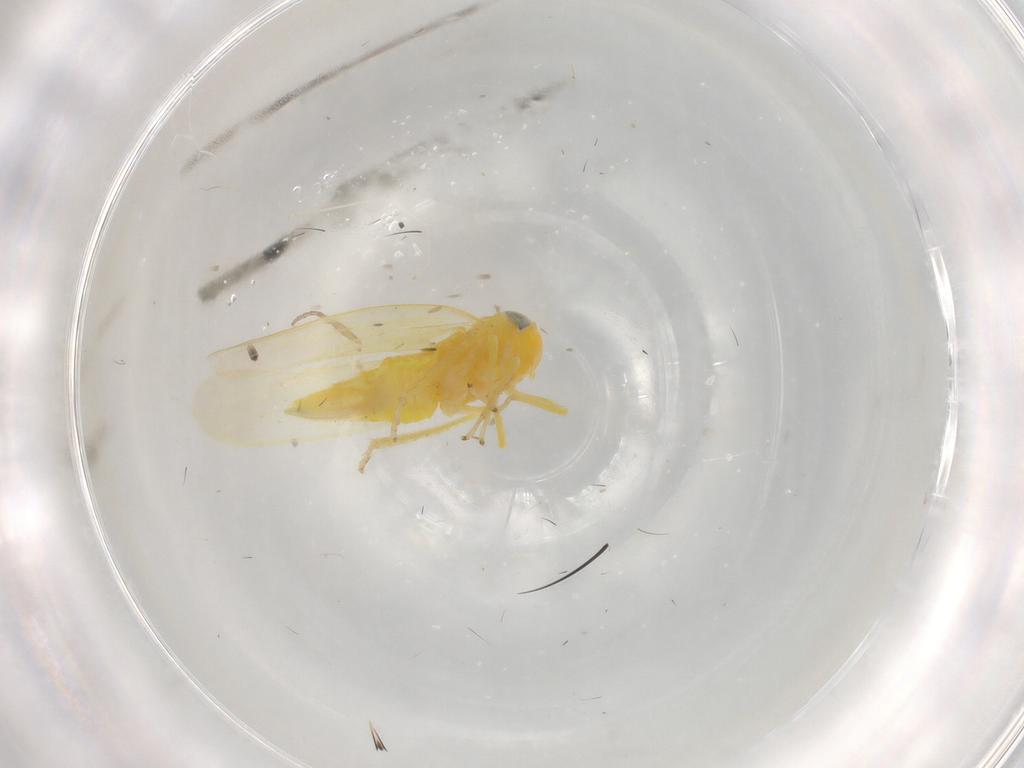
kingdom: Animalia
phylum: Arthropoda
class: Insecta
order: Hemiptera
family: Cicadellidae
